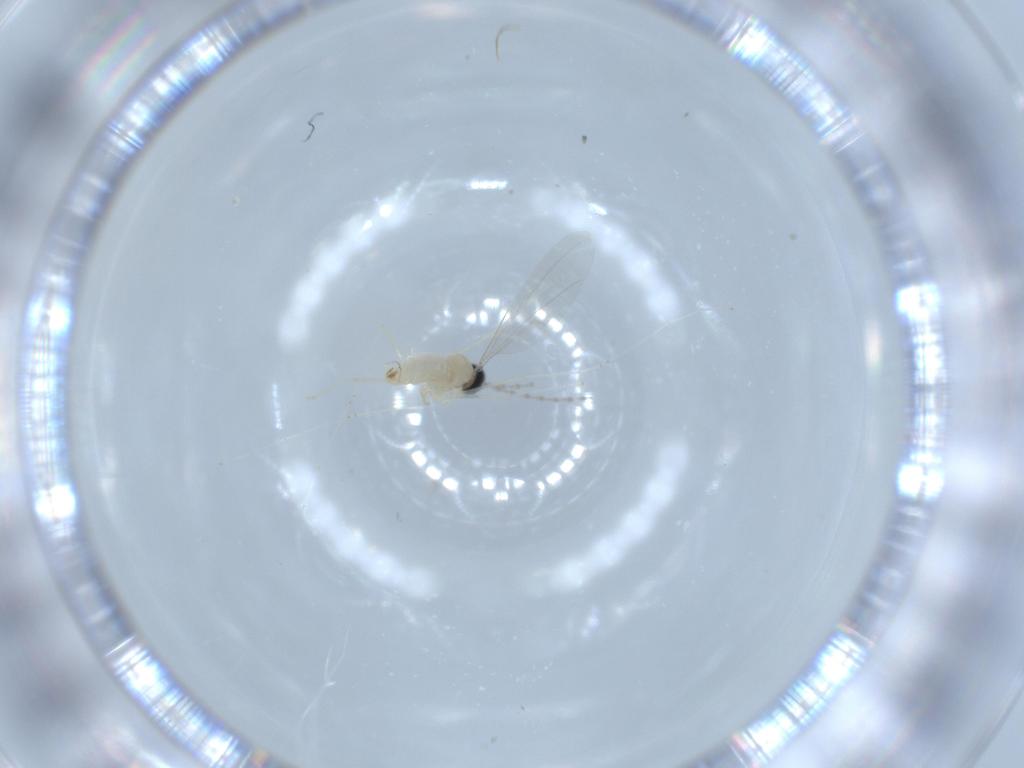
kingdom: Animalia
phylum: Arthropoda
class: Insecta
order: Diptera
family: Cecidomyiidae
